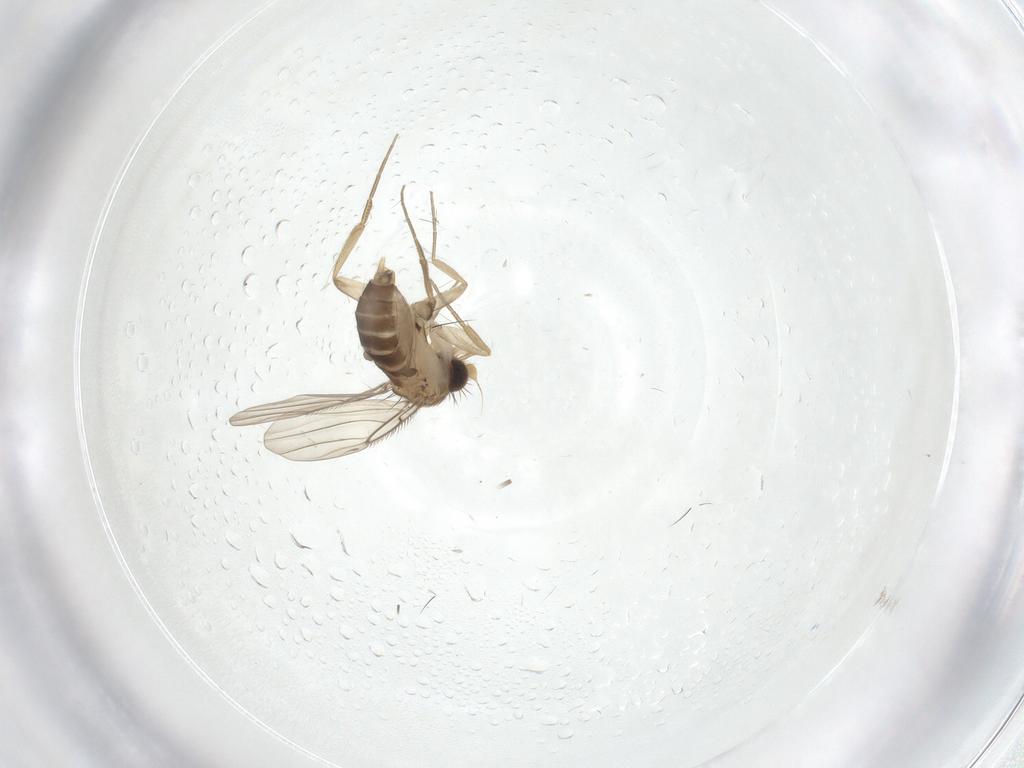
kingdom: Animalia
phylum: Arthropoda
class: Insecta
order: Diptera
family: Phoridae
